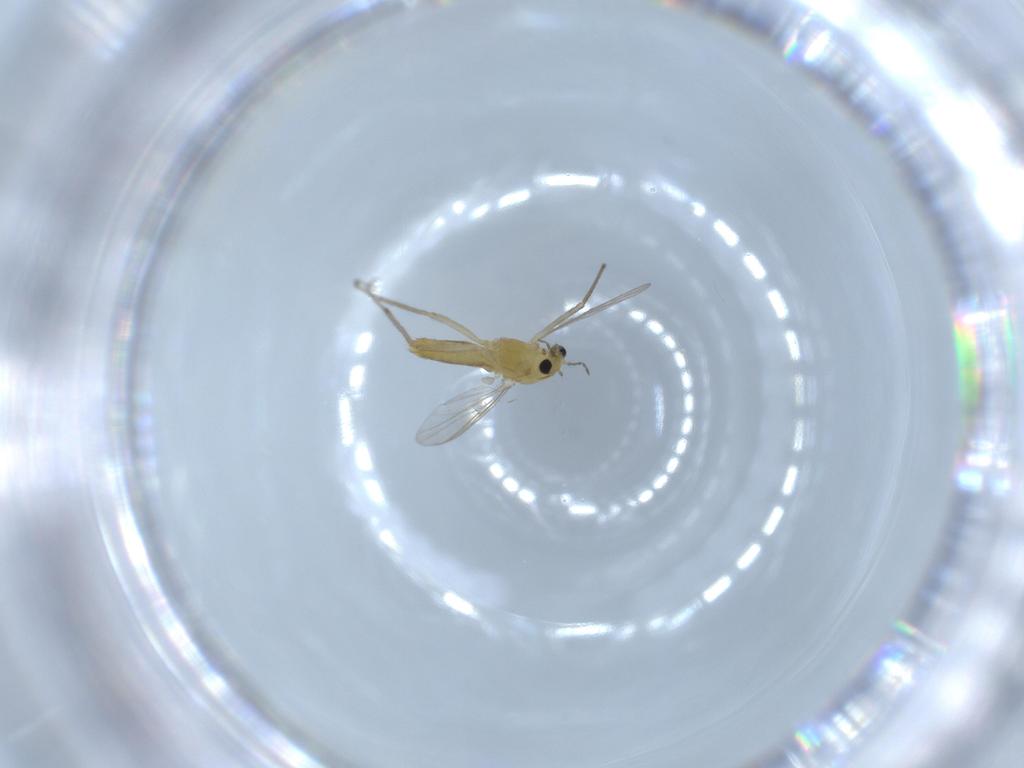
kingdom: Animalia
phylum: Arthropoda
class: Insecta
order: Diptera
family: Chironomidae
